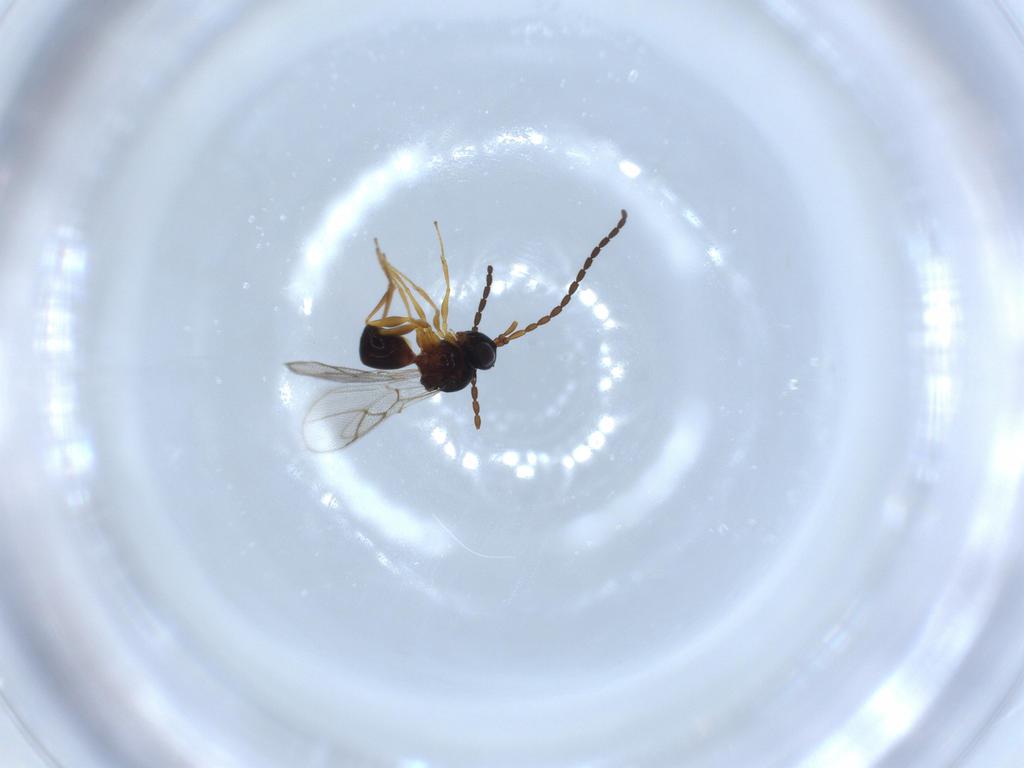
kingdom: Animalia
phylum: Arthropoda
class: Insecta
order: Hymenoptera
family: Figitidae
